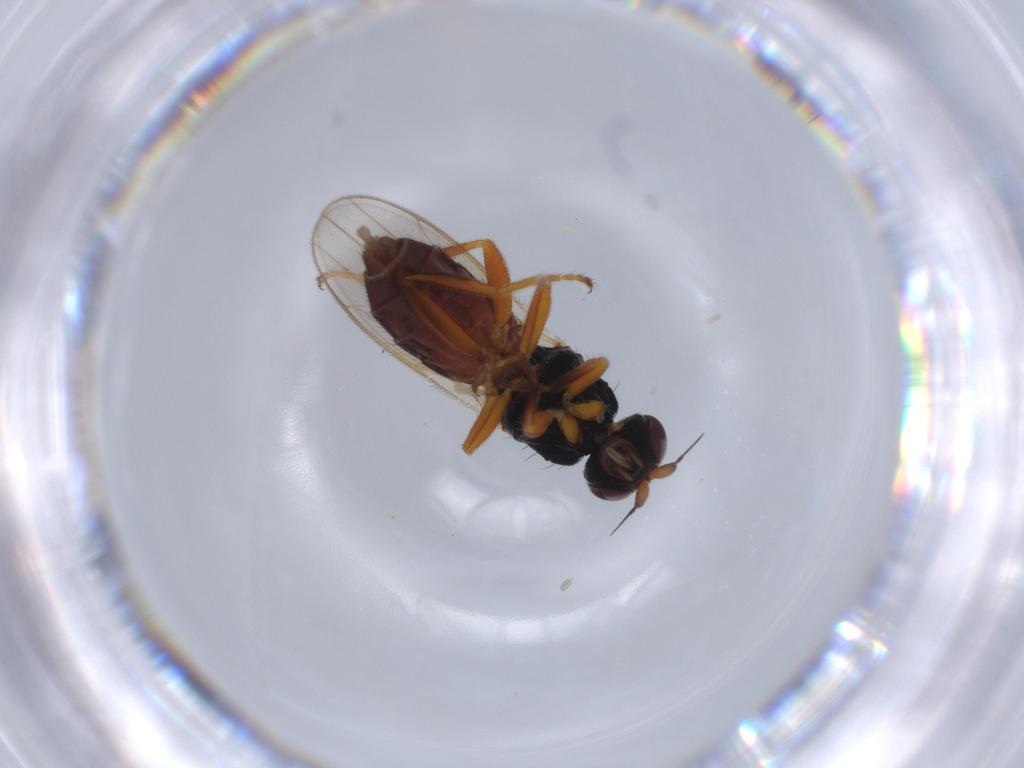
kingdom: Animalia
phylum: Arthropoda
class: Insecta
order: Diptera
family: Chloropidae
